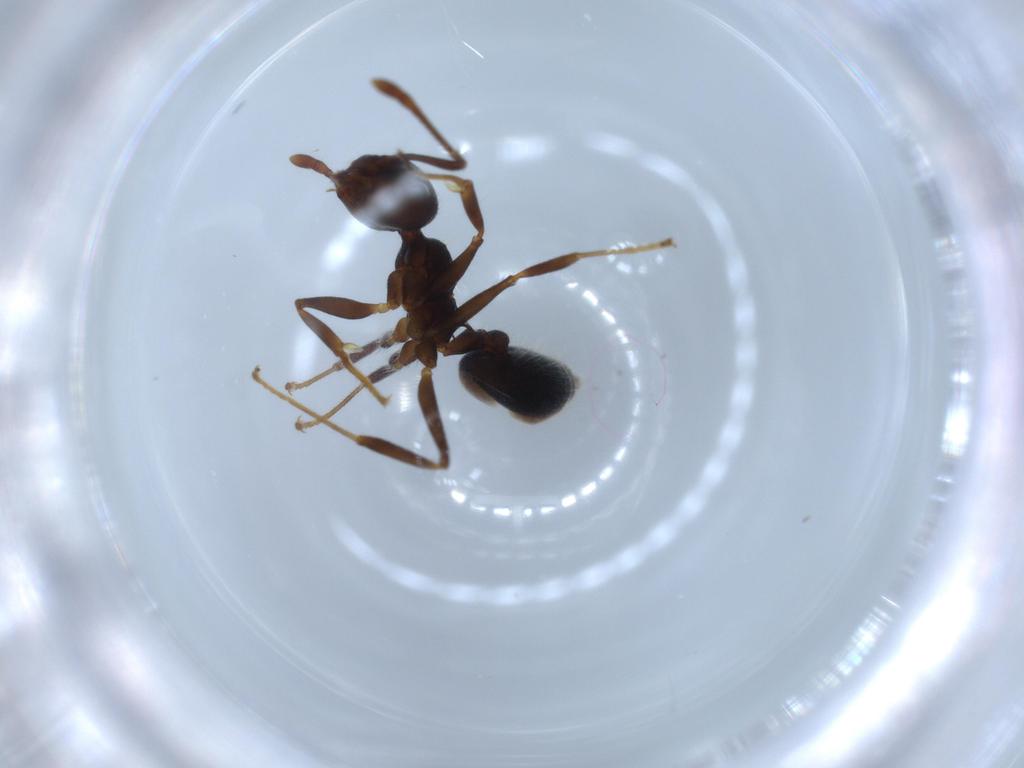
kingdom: Animalia
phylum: Arthropoda
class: Insecta
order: Hymenoptera
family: Formicidae
